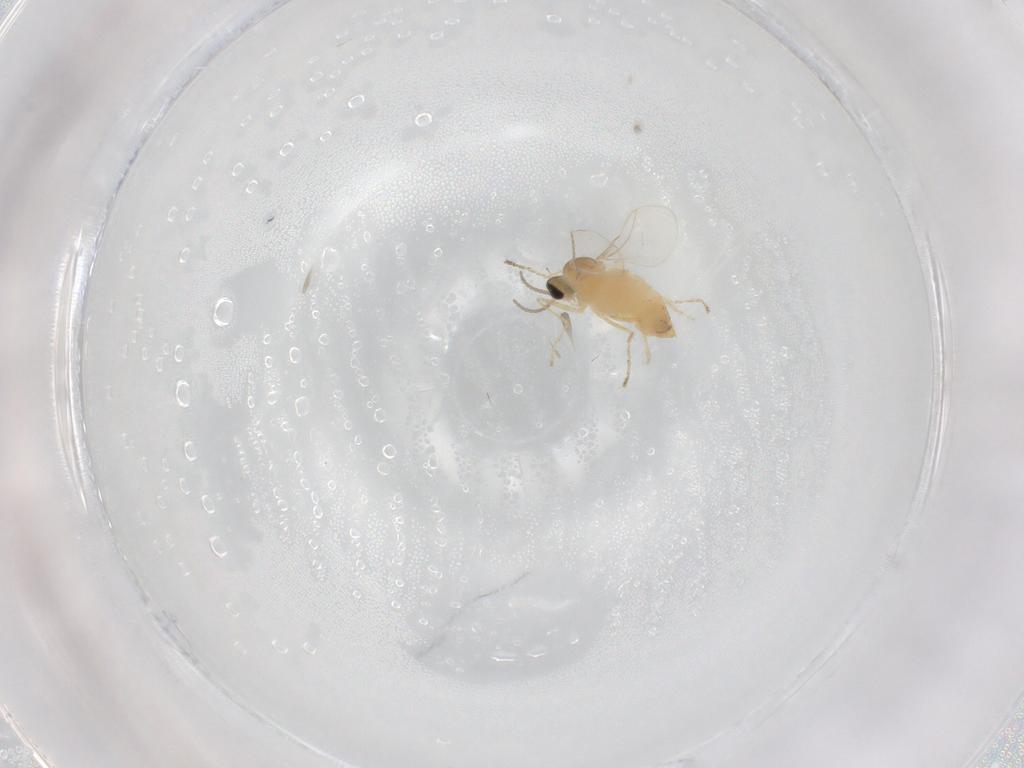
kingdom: Animalia
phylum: Arthropoda
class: Insecta
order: Diptera
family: Cecidomyiidae
